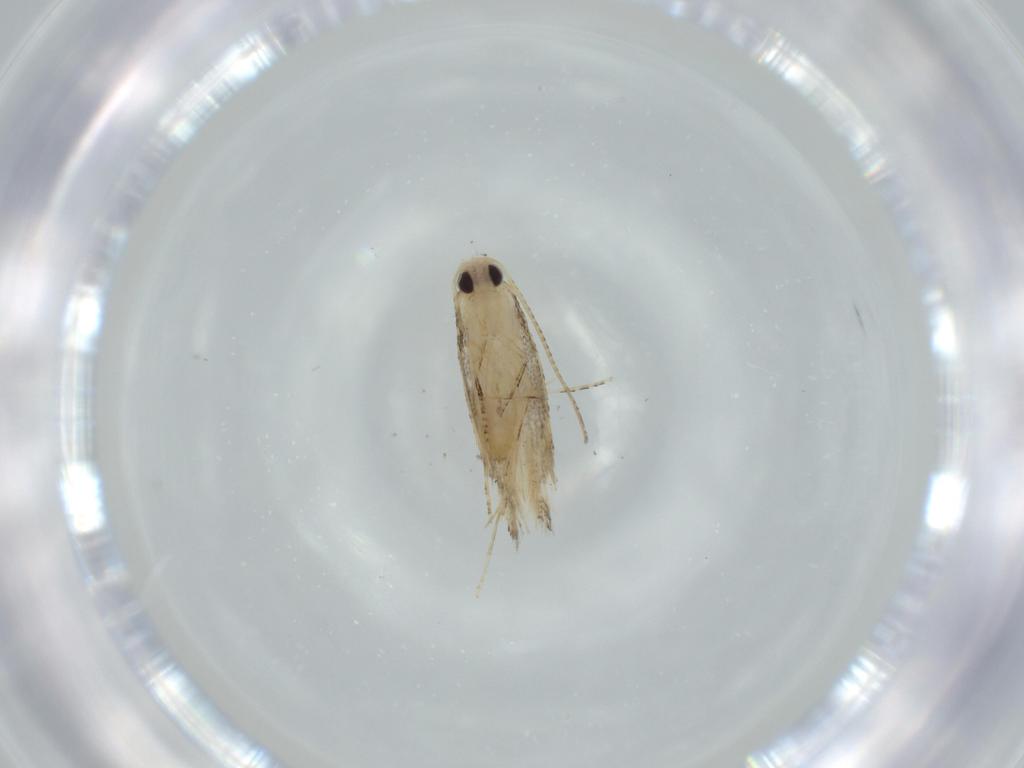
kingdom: Animalia
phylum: Arthropoda
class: Insecta
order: Lepidoptera
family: Bucculatricidae
